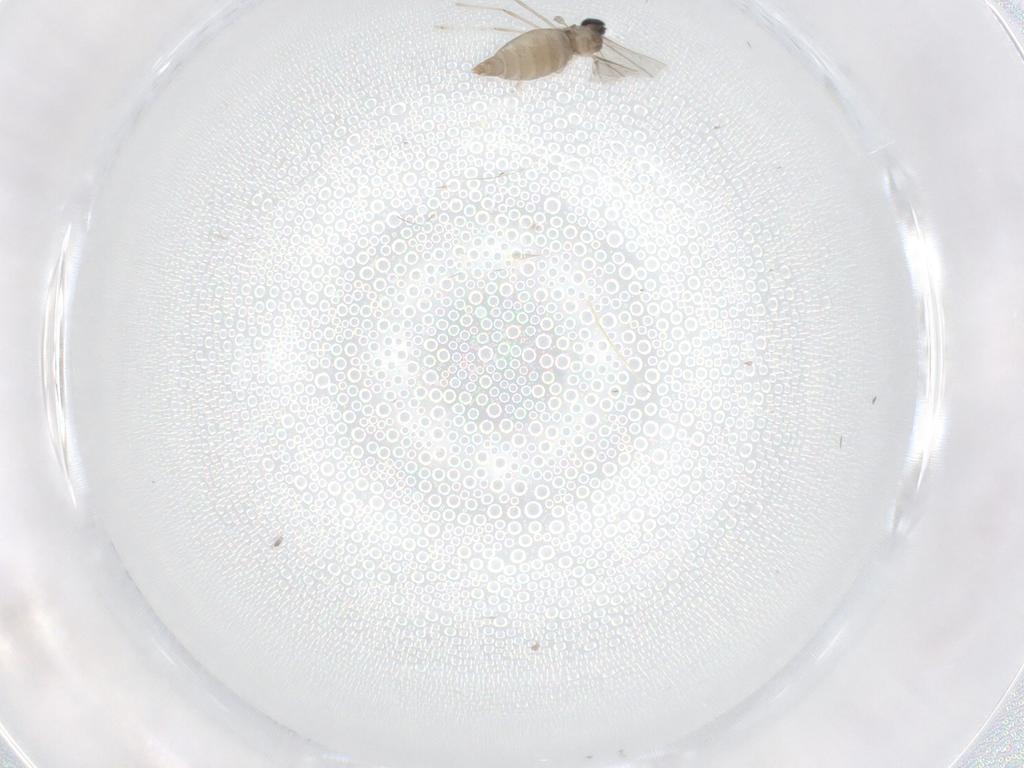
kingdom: Animalia
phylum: Arthropoda
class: Insecta
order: Diptera
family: Cecidomyiidae
